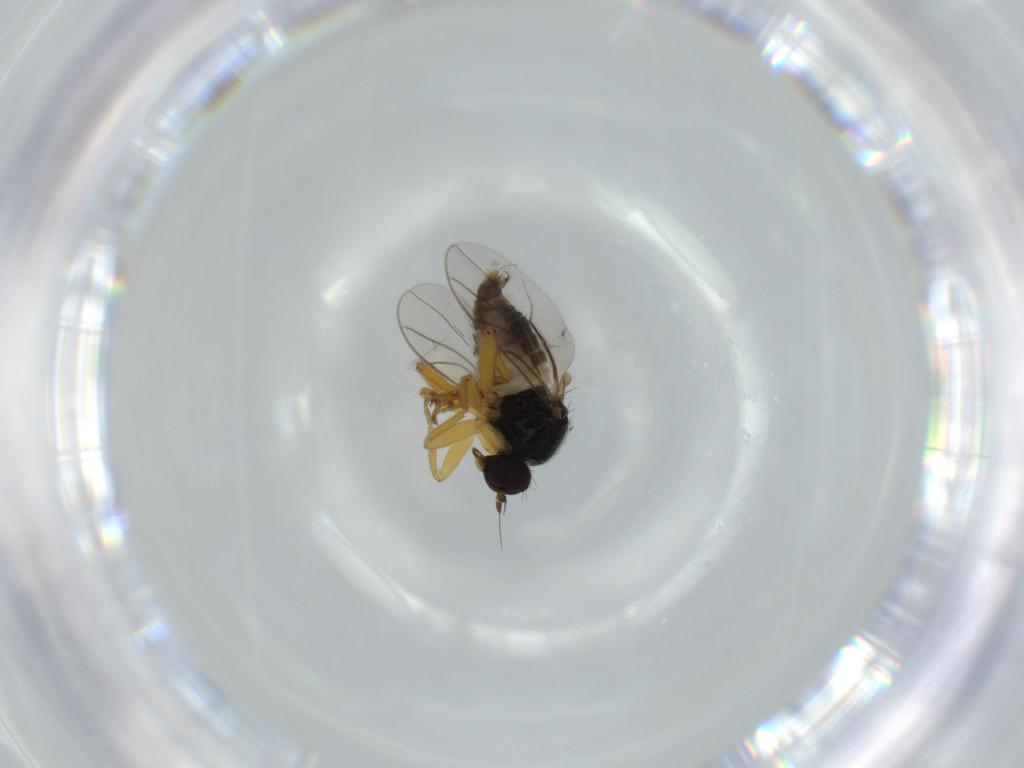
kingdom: Animalia
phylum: Arthropoda
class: Insecta
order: Diptera
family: Hybotidae
